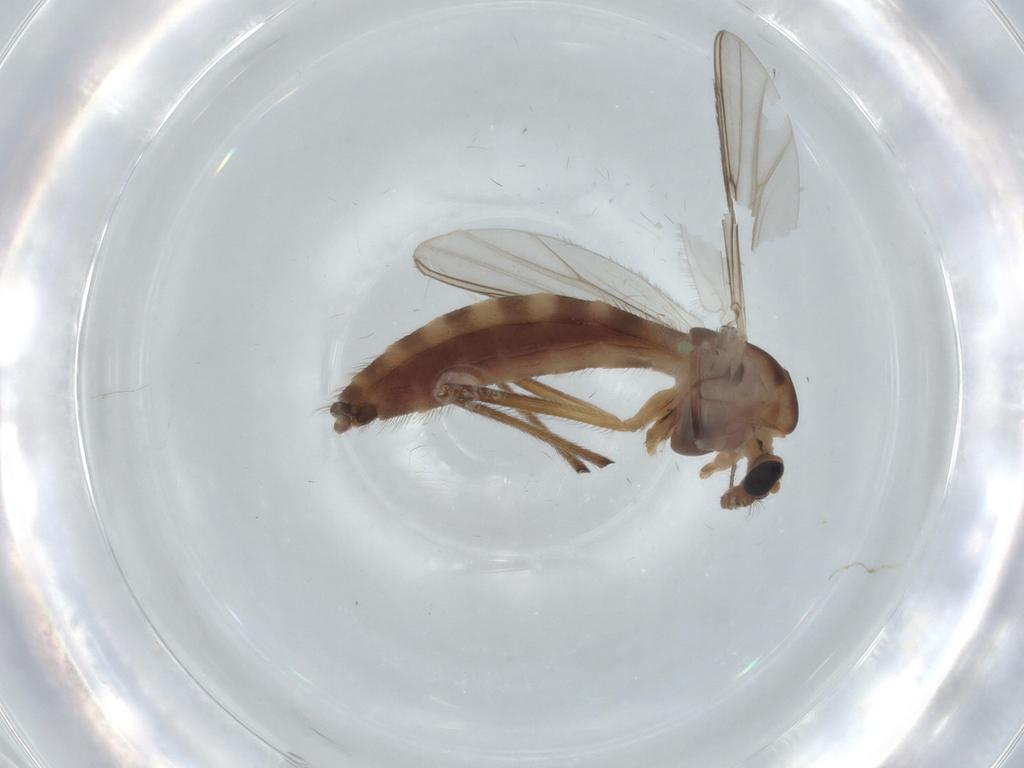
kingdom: Animalia
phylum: Arthropoda
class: Insecta
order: Diptera
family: Chironomidae
